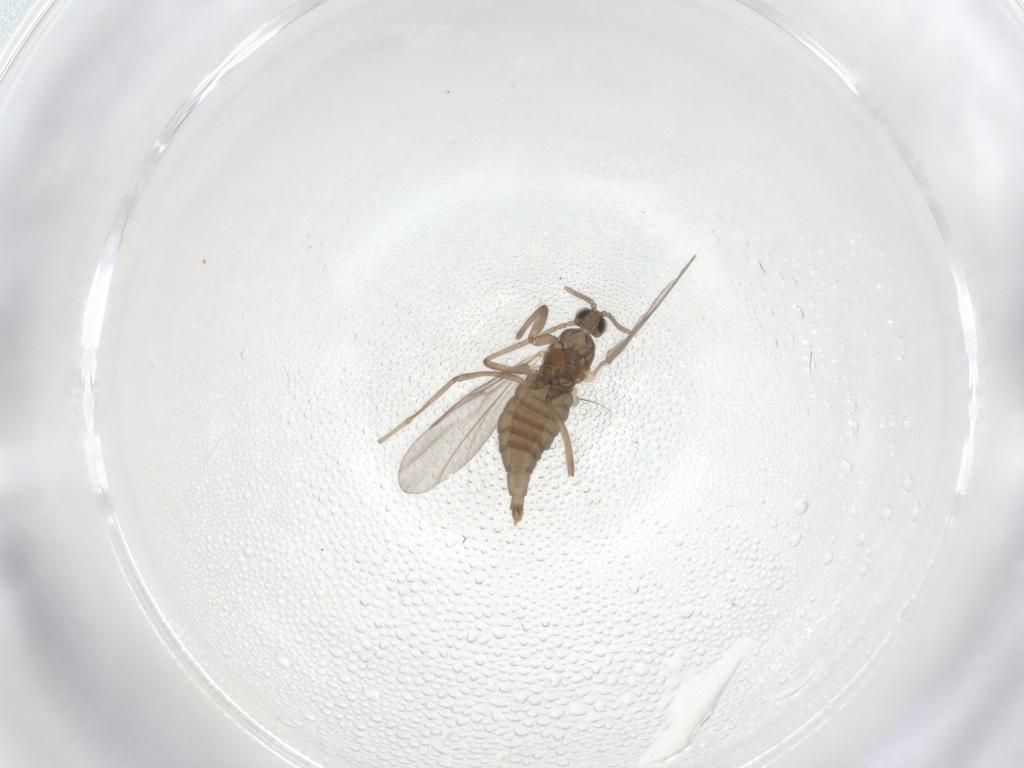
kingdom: Animalia
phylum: Arthropoda
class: Insecta
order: Diptera
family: Cecidomyiidae
